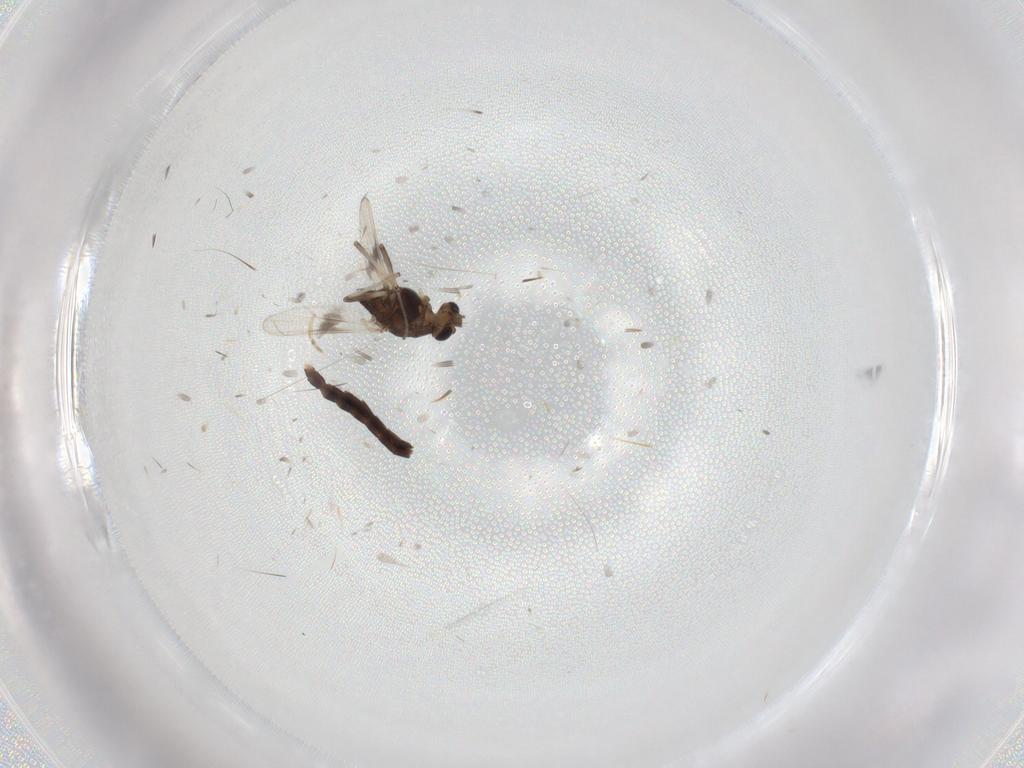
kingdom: Animalia
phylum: Arthropoda
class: Insecta
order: Diptera
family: Chironomidae
